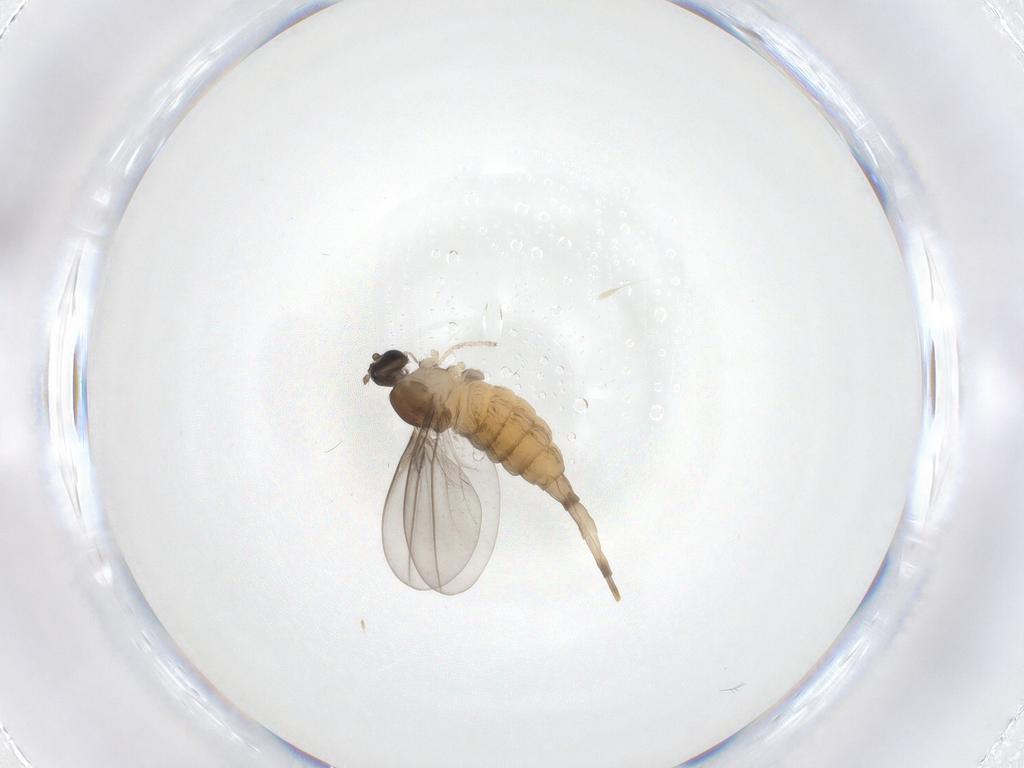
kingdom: Animalia
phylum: Arthropoda
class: Insecta
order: Diptera
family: Cecidomyiidae
